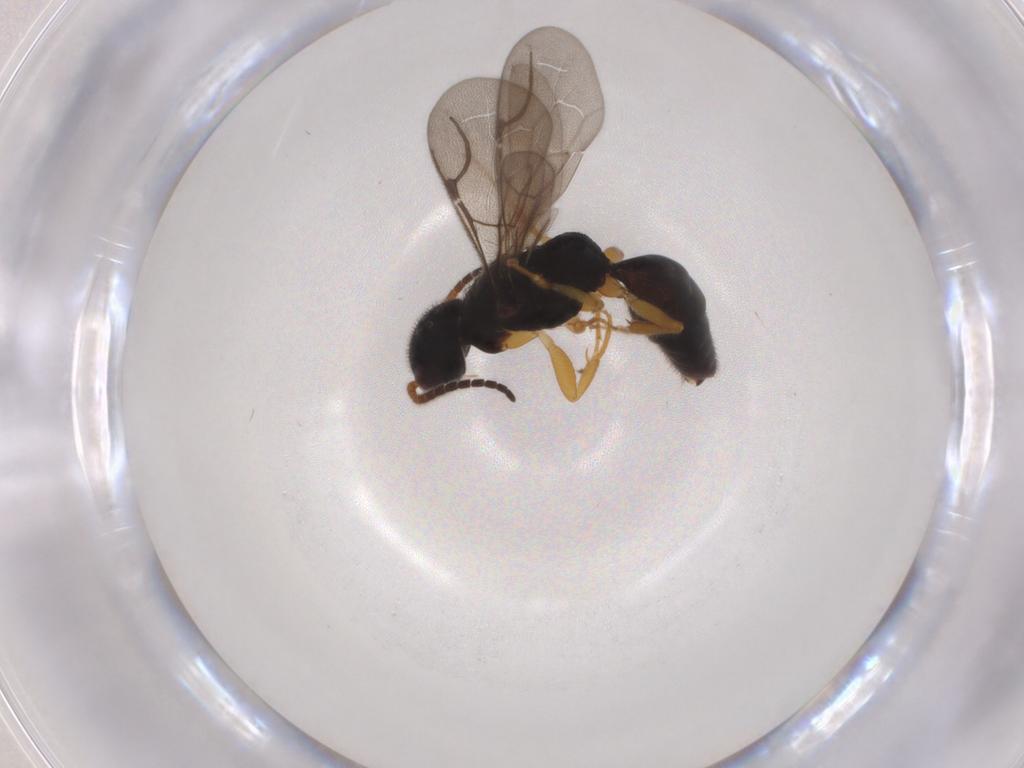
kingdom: Animalia
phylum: Arthropoda
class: Insecta
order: Hymenoptera
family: Bethylidae
